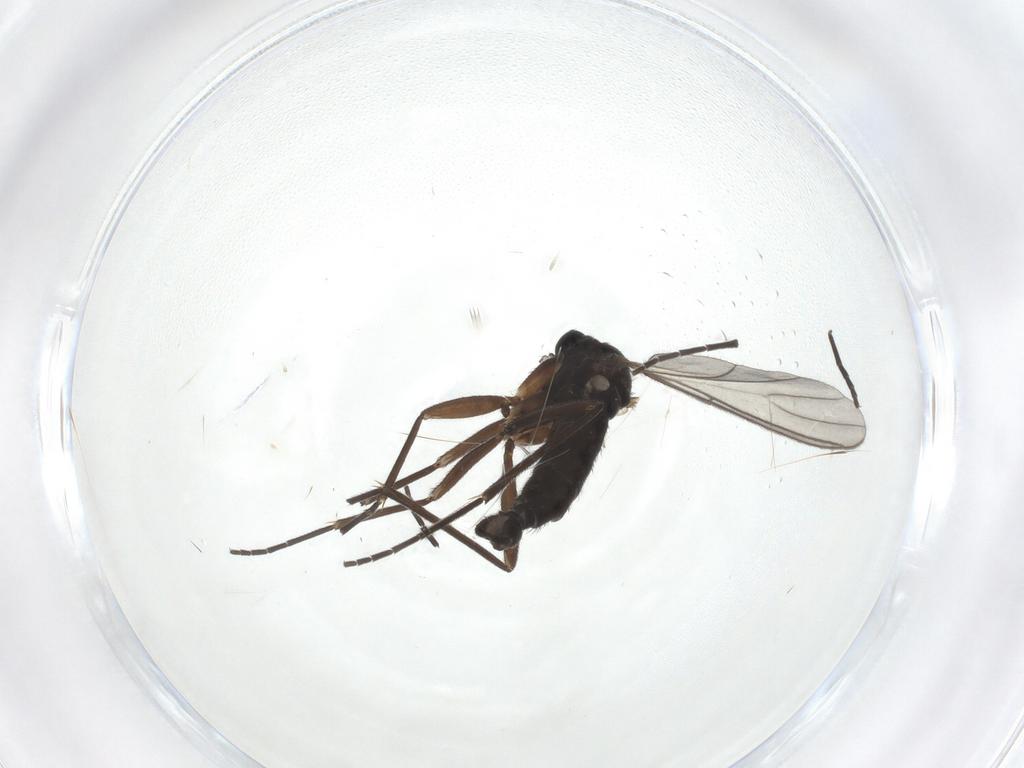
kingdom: Animalia
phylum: Arthropoda
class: Insecta
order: Diptera
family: Sciaridae
